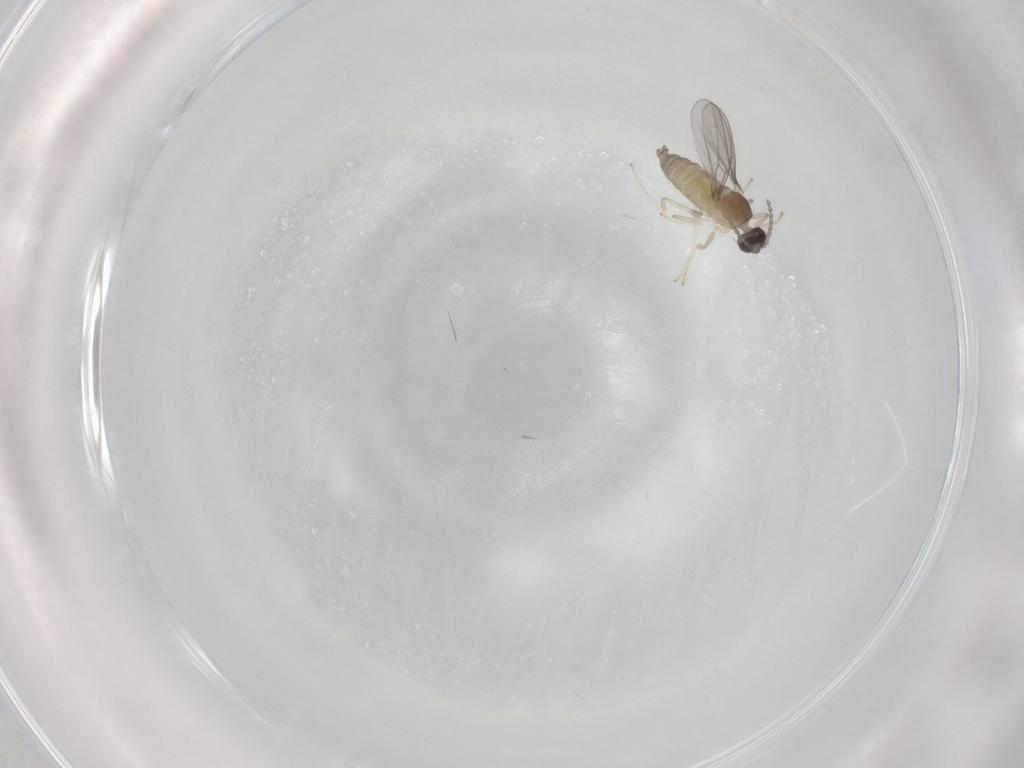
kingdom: Animalia
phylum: Arthropoda
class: Insecta
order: Diptera
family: Cecidomyiidae
